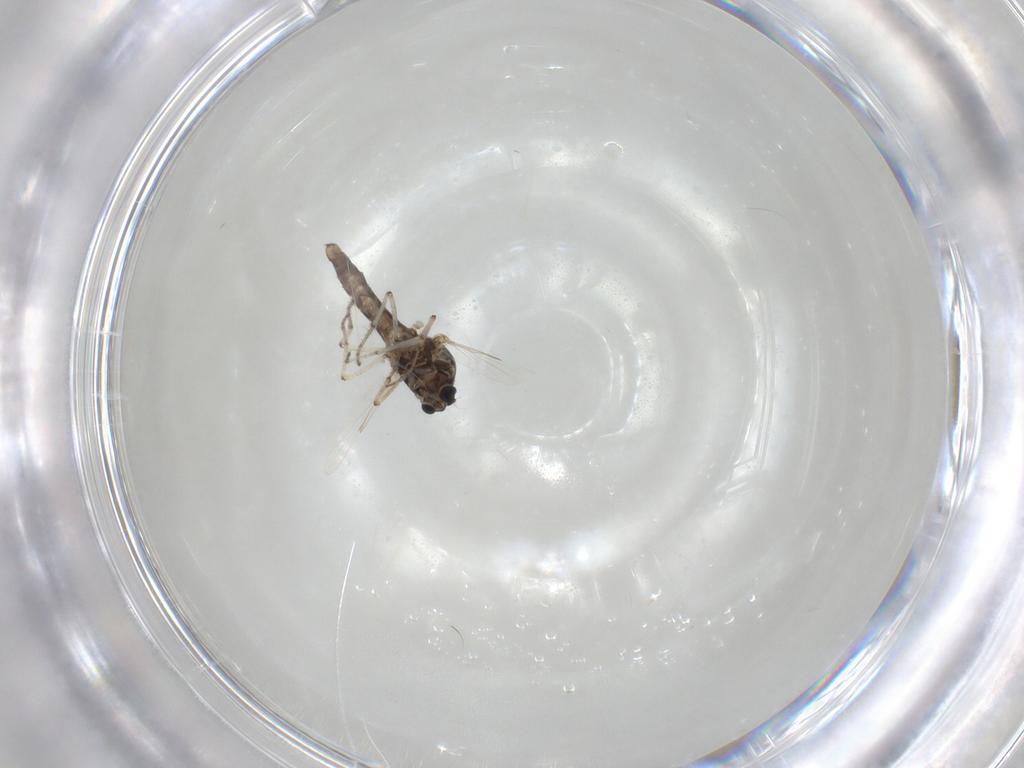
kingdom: Animalia
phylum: Arthropoda
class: Insecta
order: Diptera
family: Ceratopogonidae
